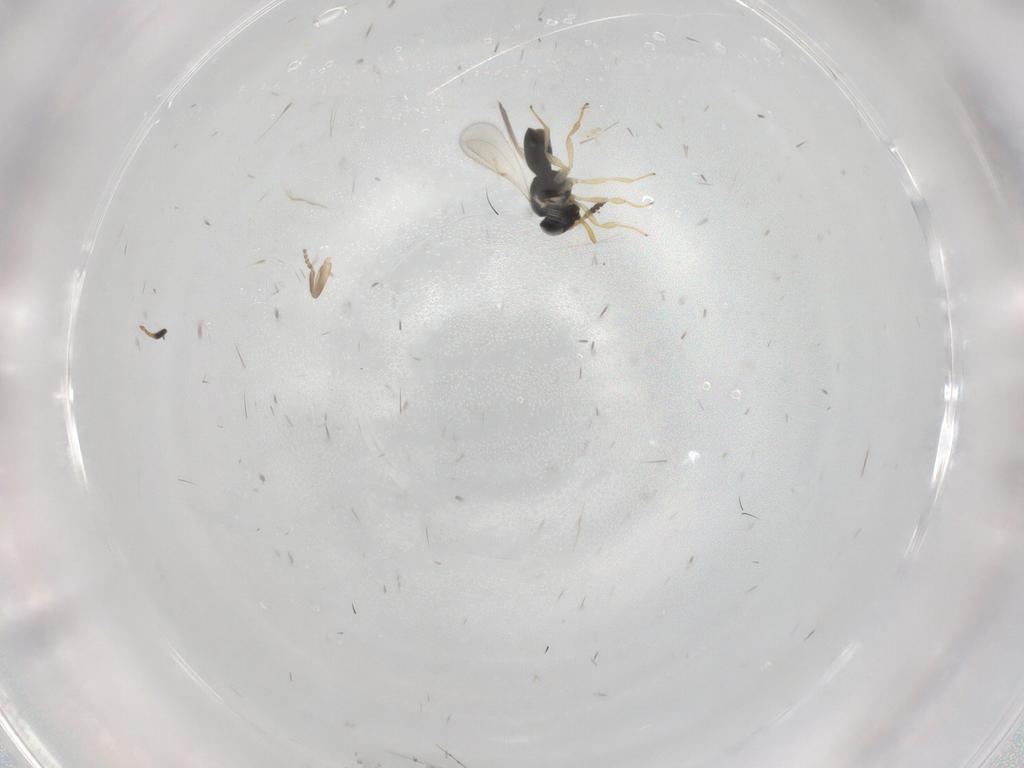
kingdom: Animalia
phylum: Arthropoda
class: Insecta
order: Hymenoptera
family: Scelionidae
